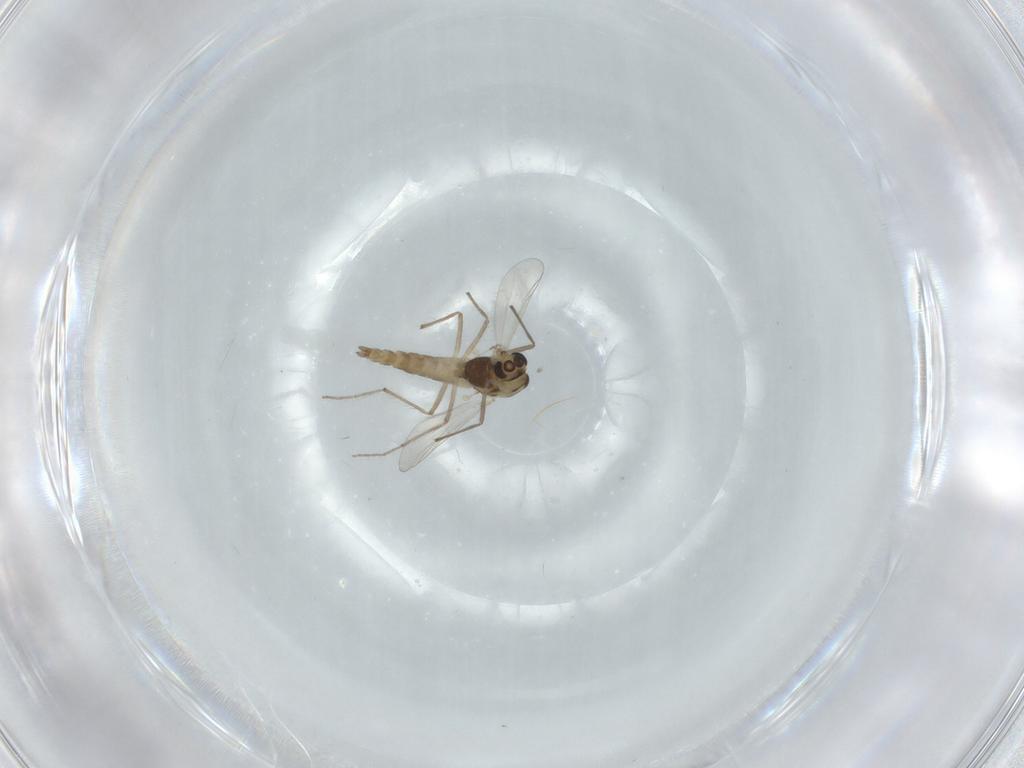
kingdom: Animalia
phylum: Arthropoda
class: Insecta
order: Diptera
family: Chironomidae
